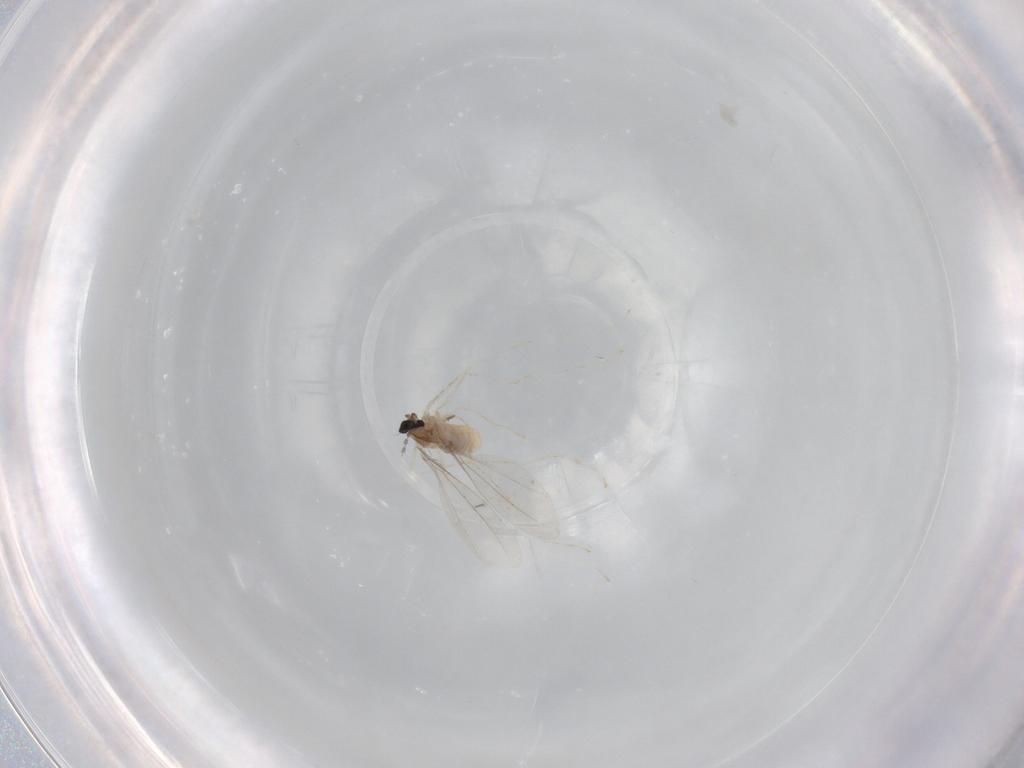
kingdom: Animalia
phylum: Arthropoda
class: Insecta
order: Diptera
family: Cecidomyiidae
